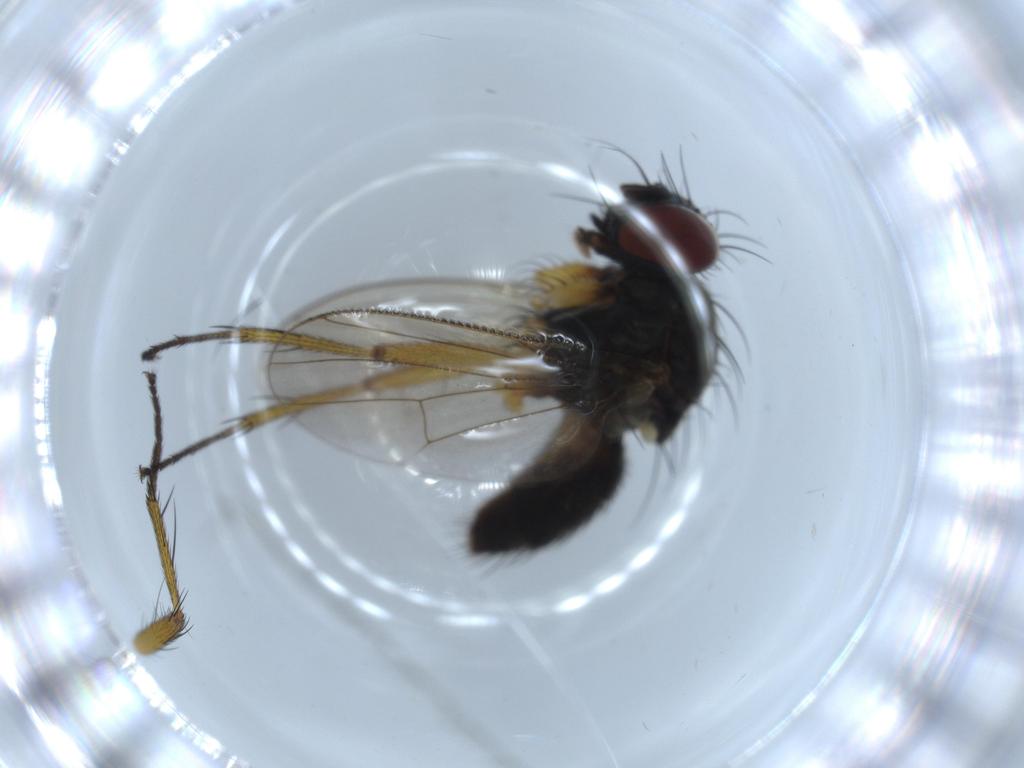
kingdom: Animalia
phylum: Arthropoda
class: Insecta
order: Diptera
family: Muscidae
